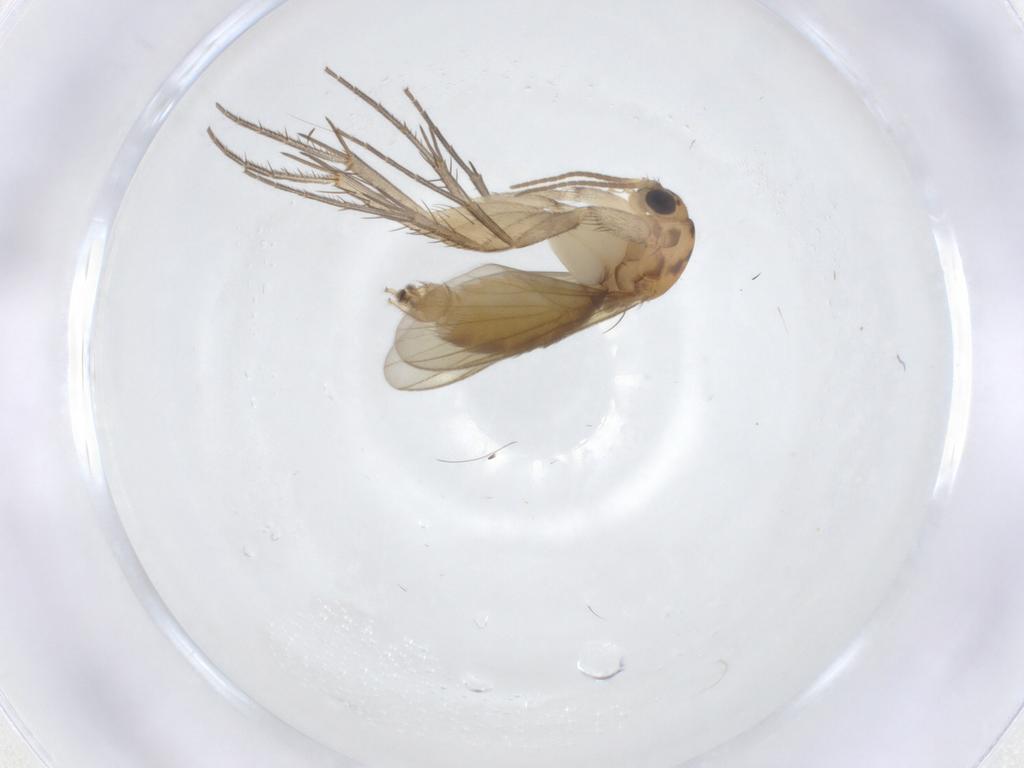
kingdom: Animalia
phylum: Arthropoda
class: Insecta
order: Diptera
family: Mycetophilidae
